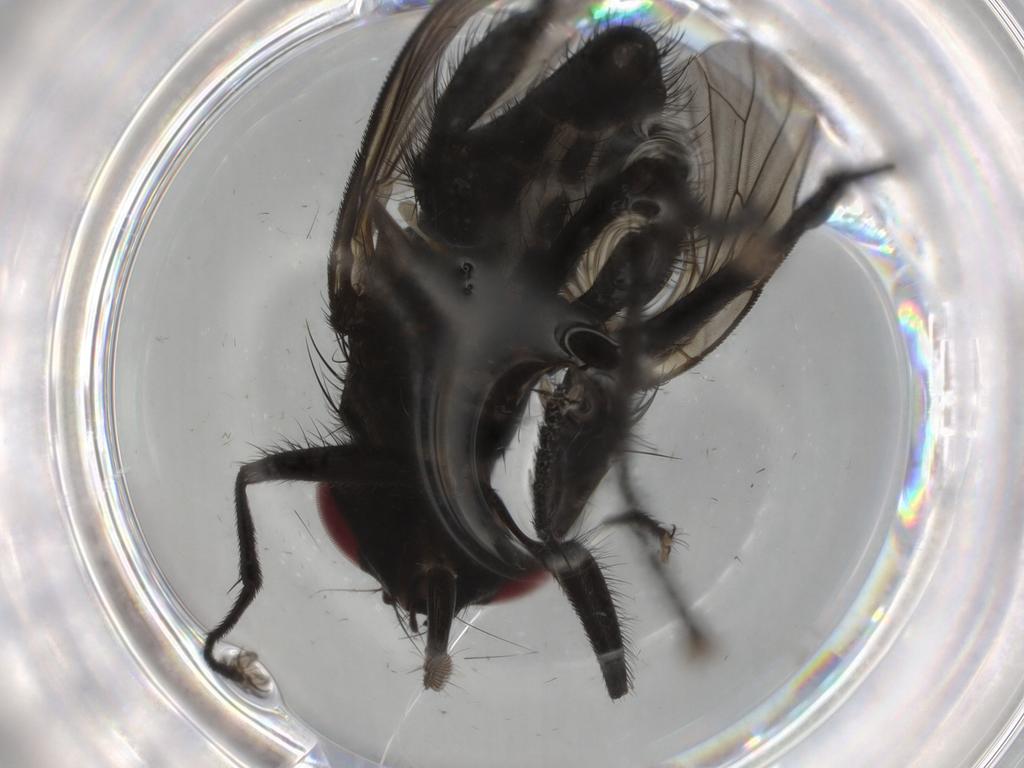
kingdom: Animalia
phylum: Arthropoda
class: Insecta
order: Diptera
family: Muscidae
